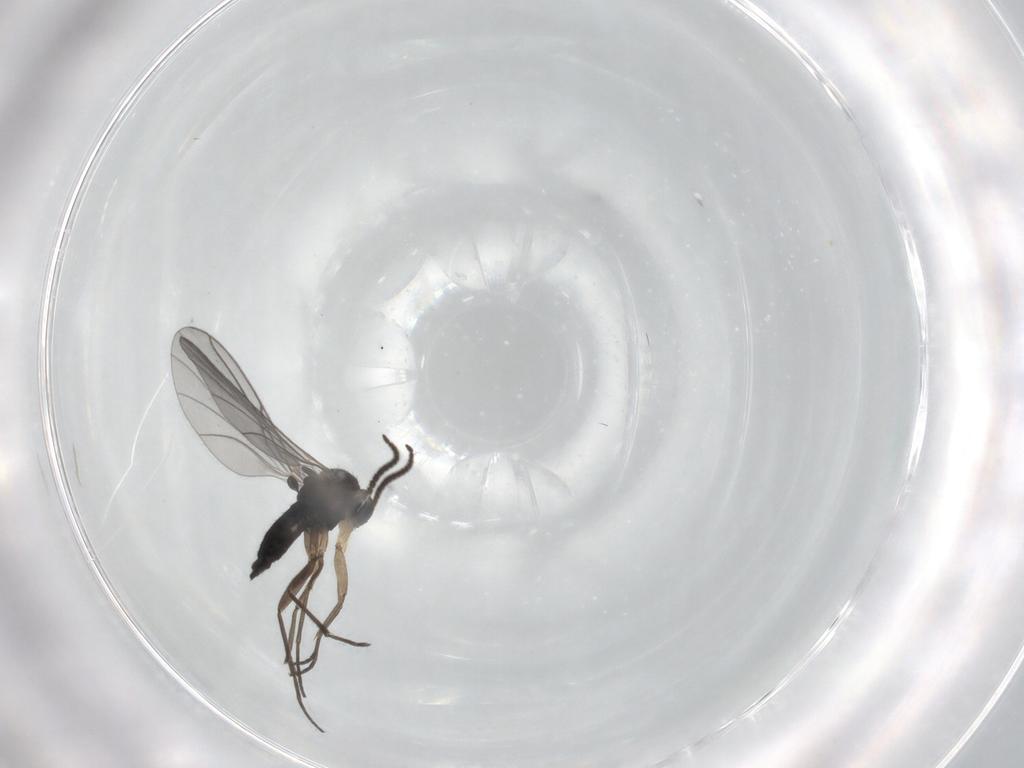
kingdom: Animalia
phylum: Arthropoda
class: Insecta
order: Diptera
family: Sciaridae
